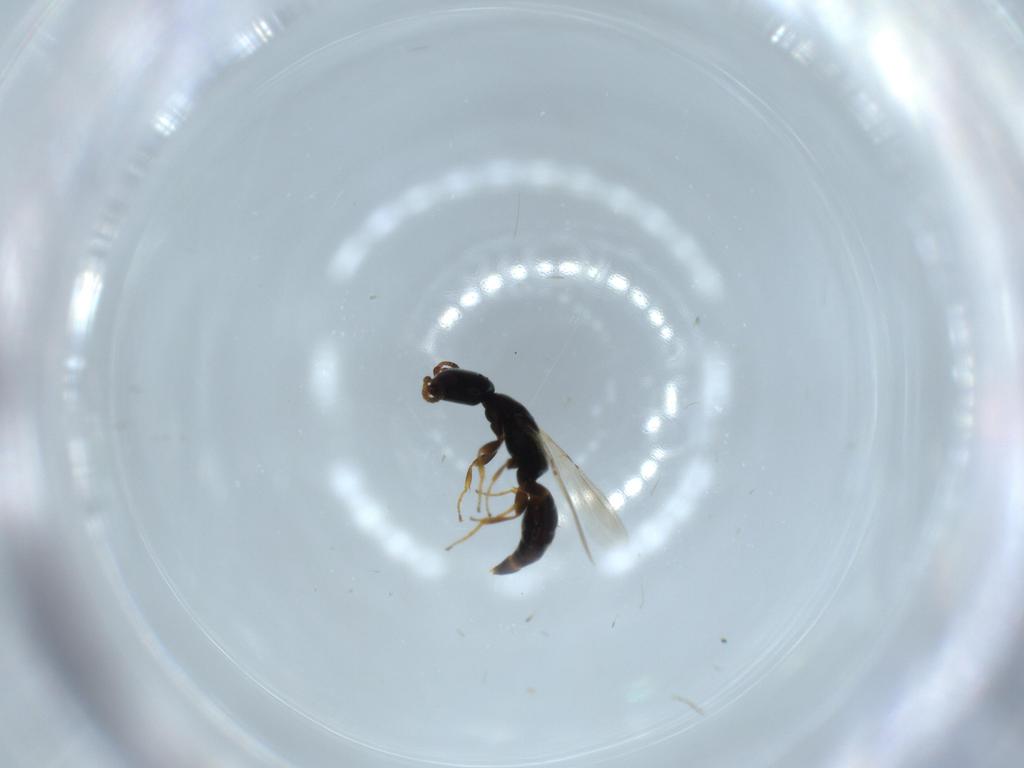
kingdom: Animalia
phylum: Arthropoda
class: Insecta
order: Hymenoptera
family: Bethylidae
